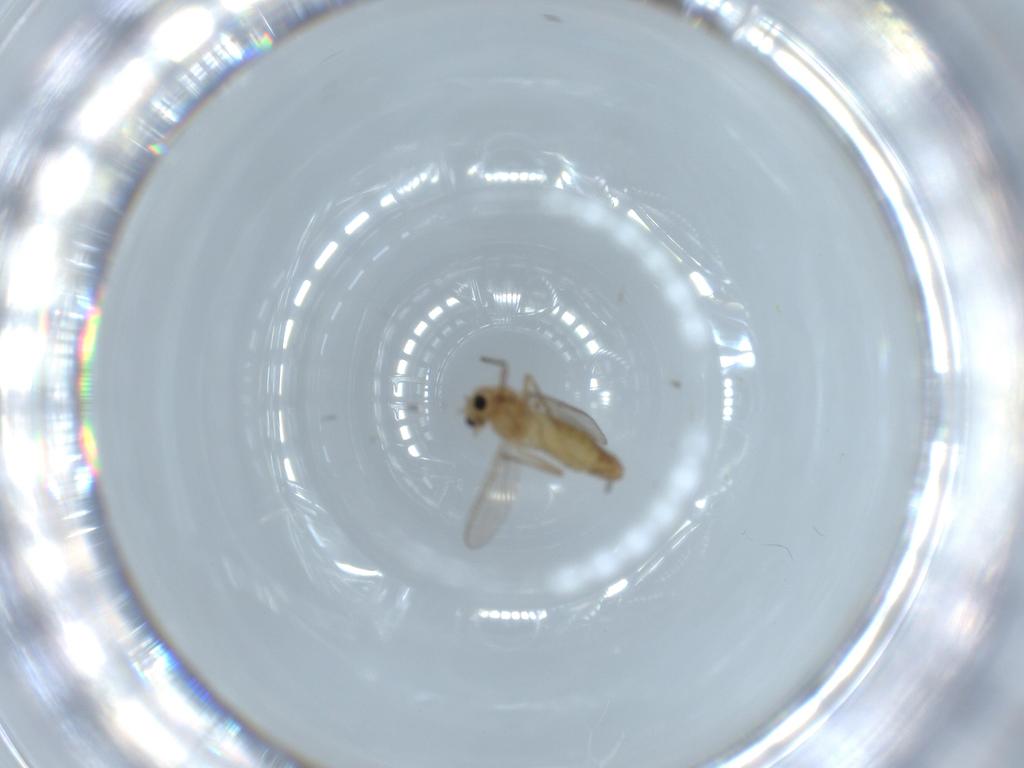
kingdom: Animalia
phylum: Arthropoda
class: Insecta
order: Diptera
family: Chironomidae
